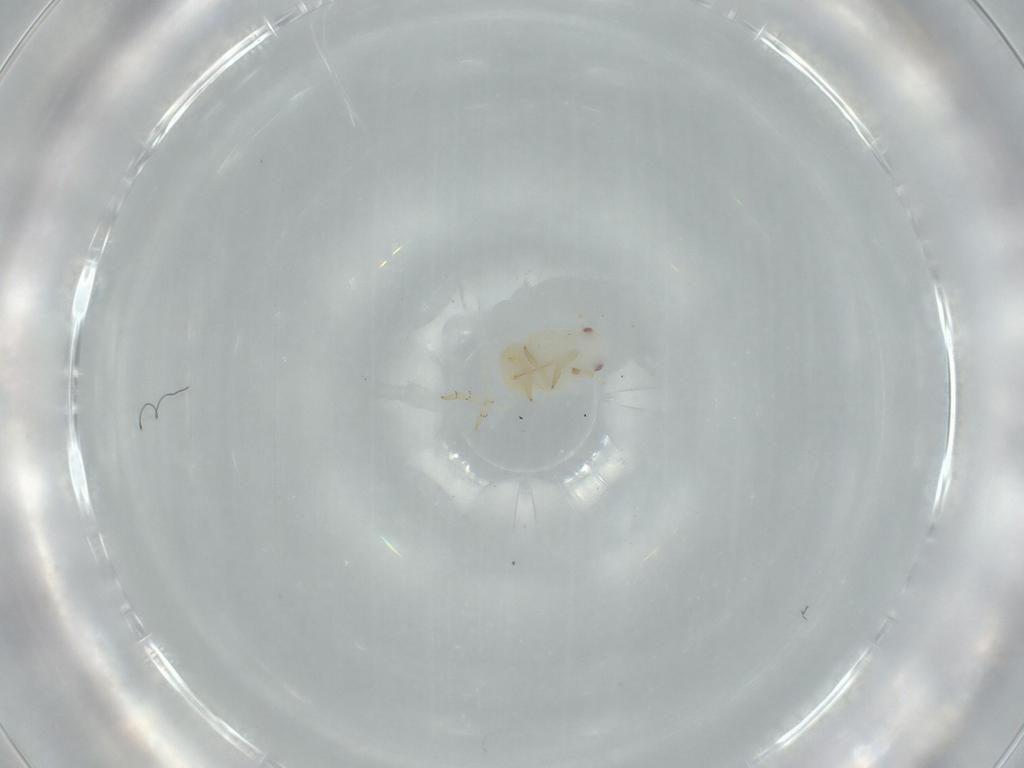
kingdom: Animalia
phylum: Arthropoda
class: Insecta
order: Hemiptera
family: Flatidae
